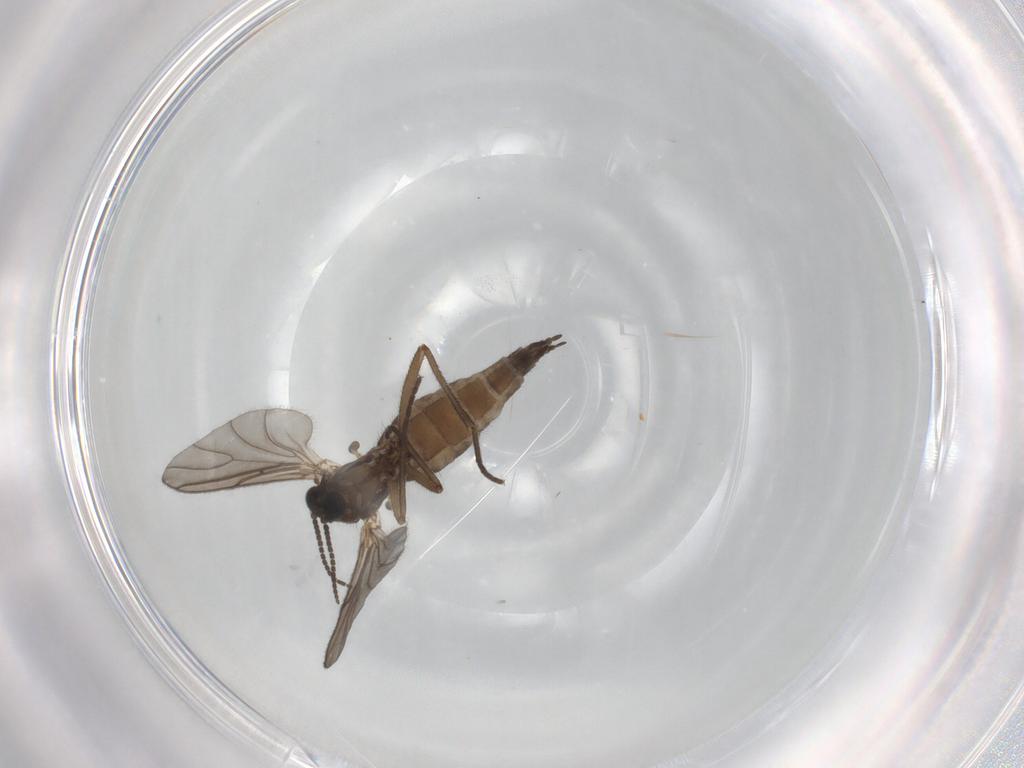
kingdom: Animalia
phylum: Arthropoda
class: Insecta
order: Diptera
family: Sciaridae
